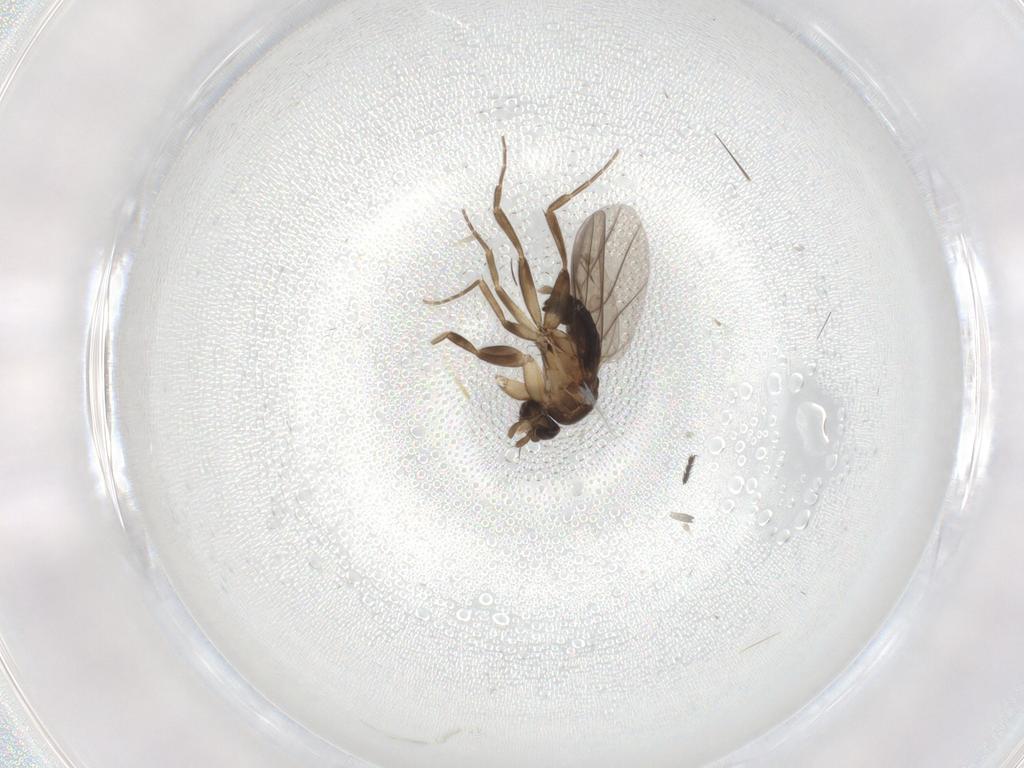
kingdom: Animalia
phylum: Arthropoda
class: Insecta
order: Diptera
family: Phoridae
